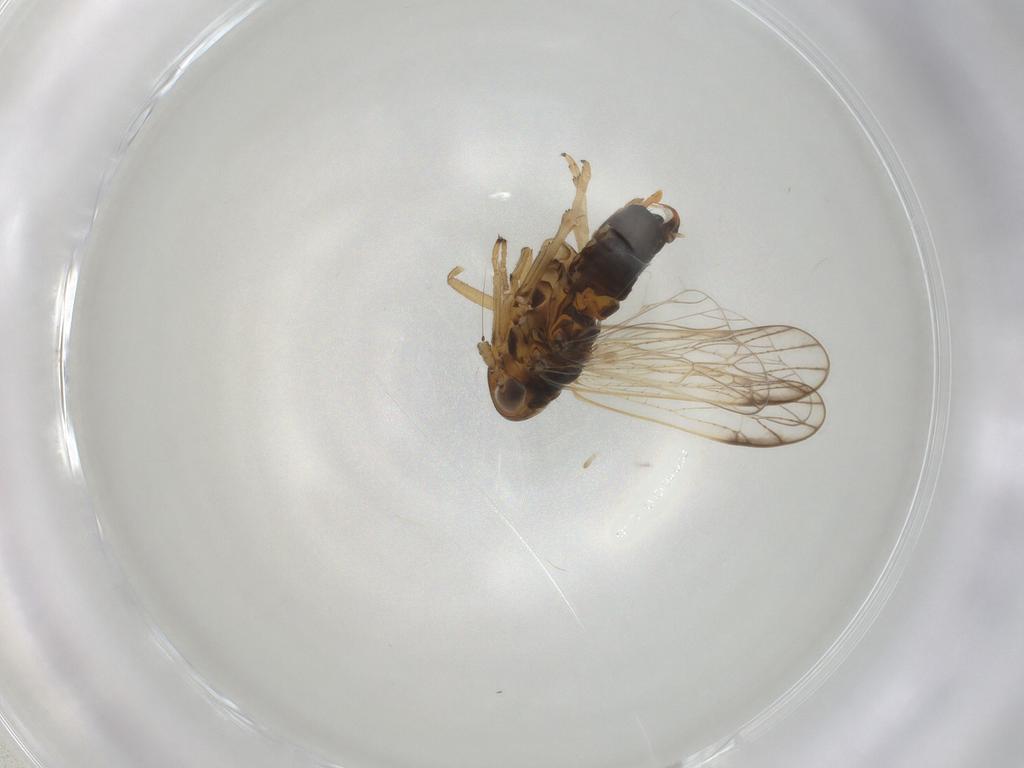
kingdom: Animalia
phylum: Arthropoda
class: Insecta
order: Hemiptera
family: Delphacidae
